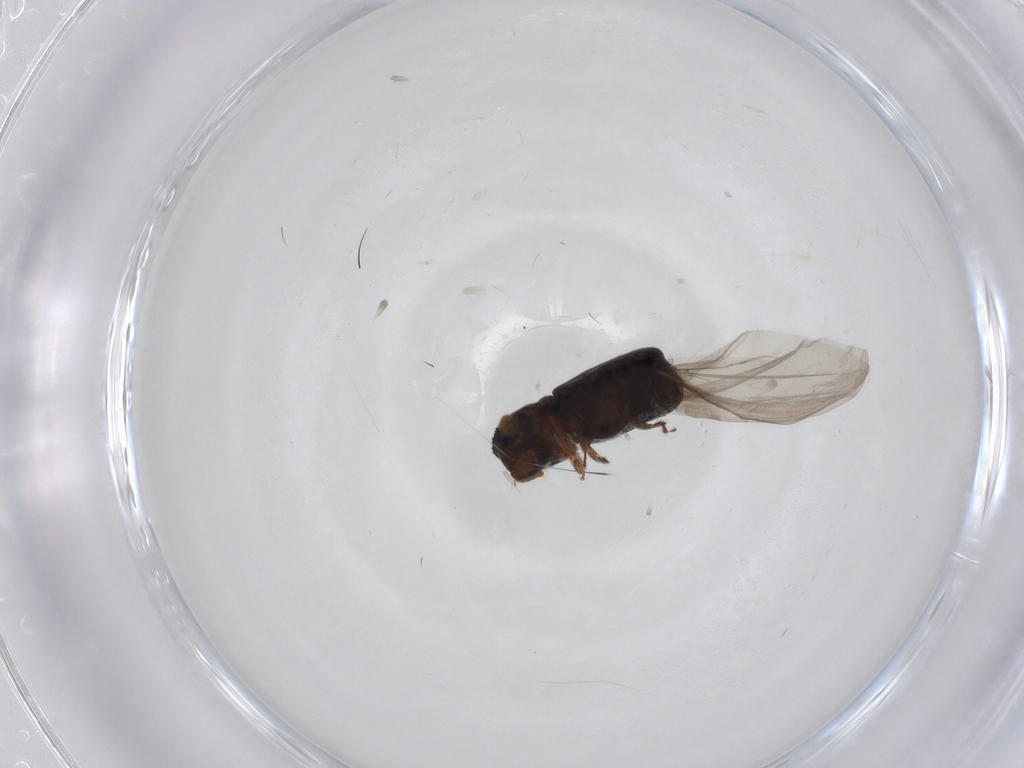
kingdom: Animalia
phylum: Arthropoda
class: Insecta
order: Coleoptera
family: Curculionidae
